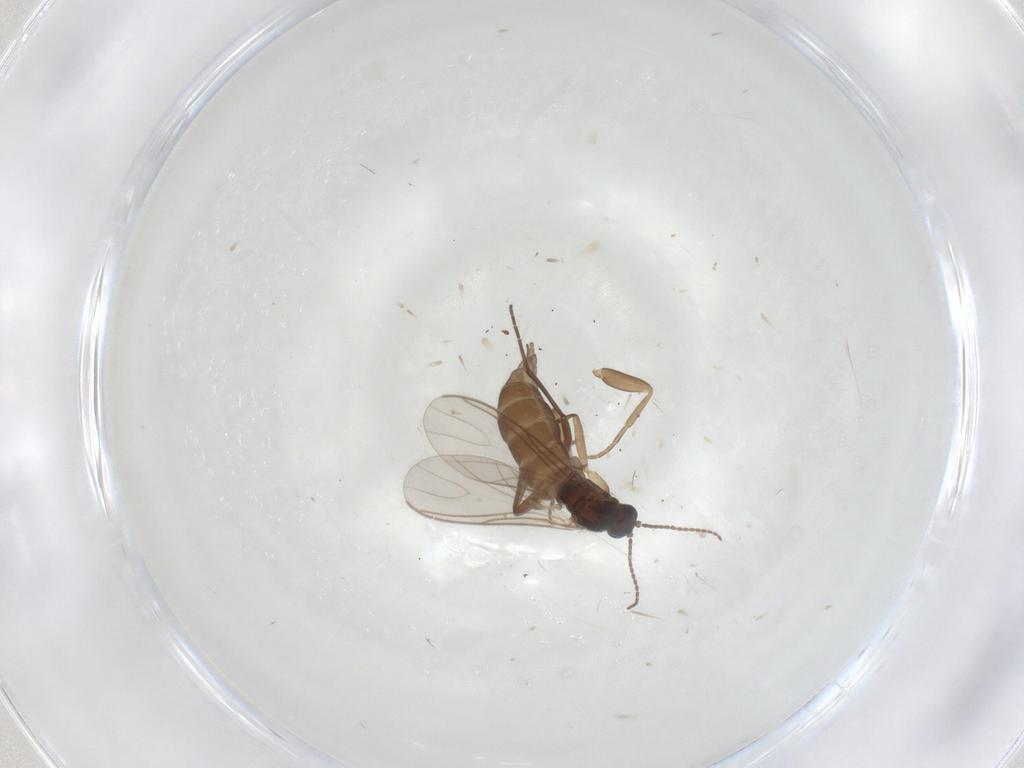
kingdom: Animalia
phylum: Arthropoda
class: Insecta
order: Diptera
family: Sciaridae
